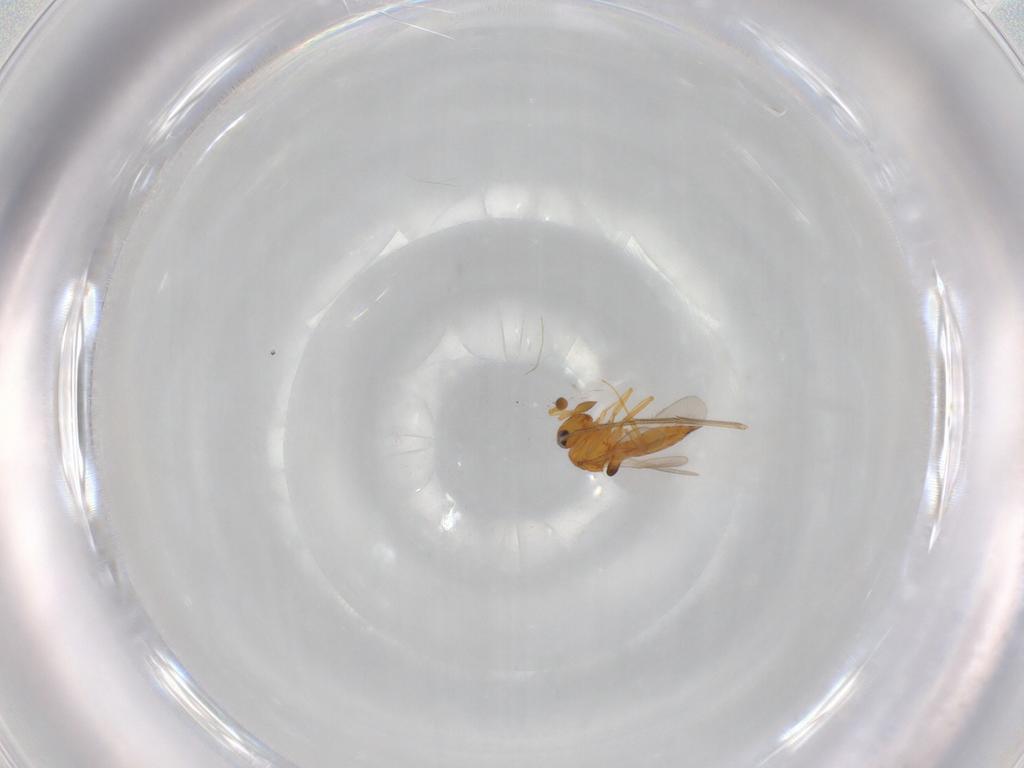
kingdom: Animalia
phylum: Arthropoda
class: Insecta
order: Hymenoptera
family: Scelionidae
